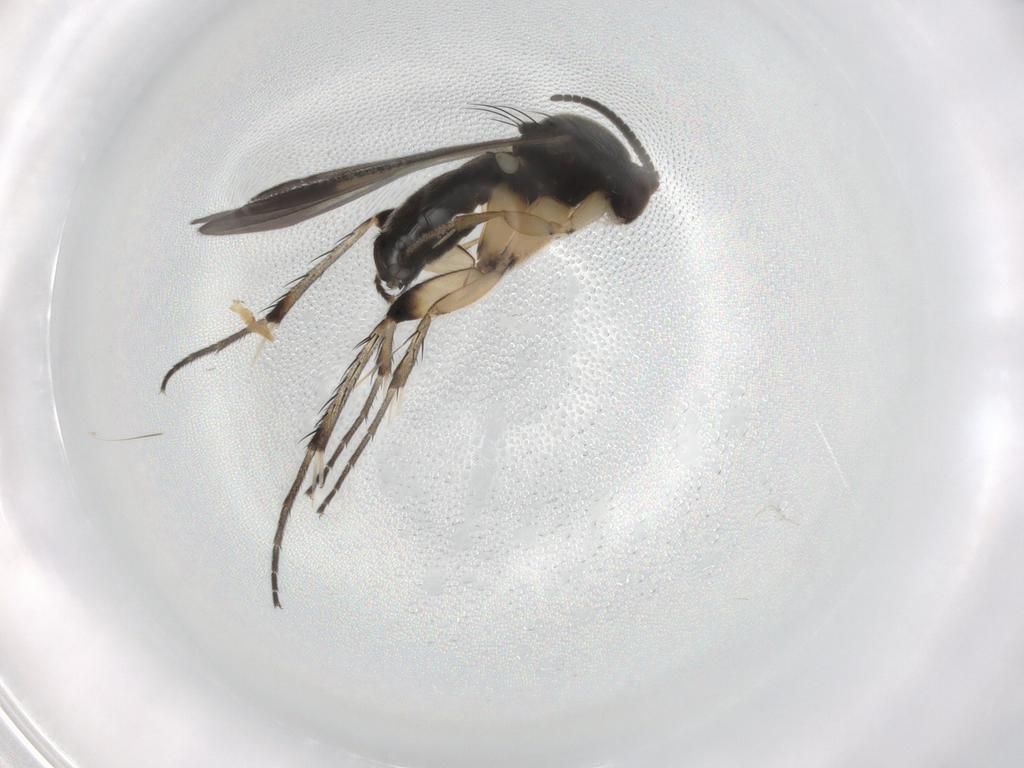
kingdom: Animalia
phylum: Arthropoda
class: Insecta
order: Diptera
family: Mycetophilidae
